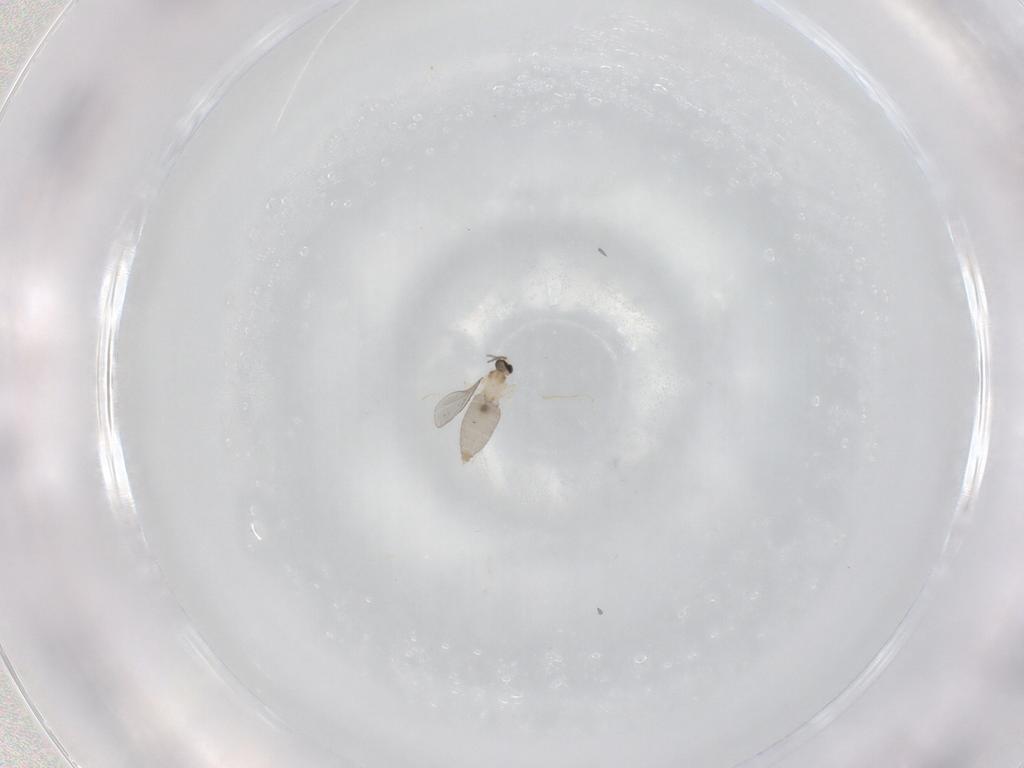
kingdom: Animalia
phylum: Arthropoda
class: Insecta
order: Diptera
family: Cecidomyiidae
